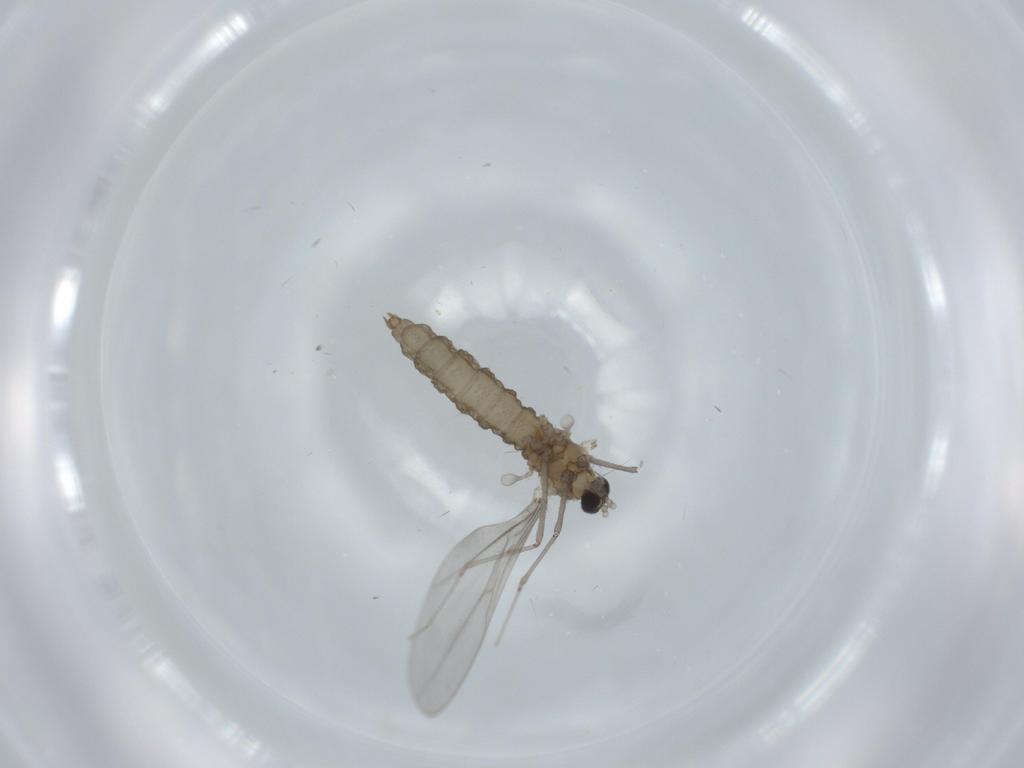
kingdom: Animalia
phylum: Arthropoda
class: Insecta
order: Diptera
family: Cecidomyiidae
